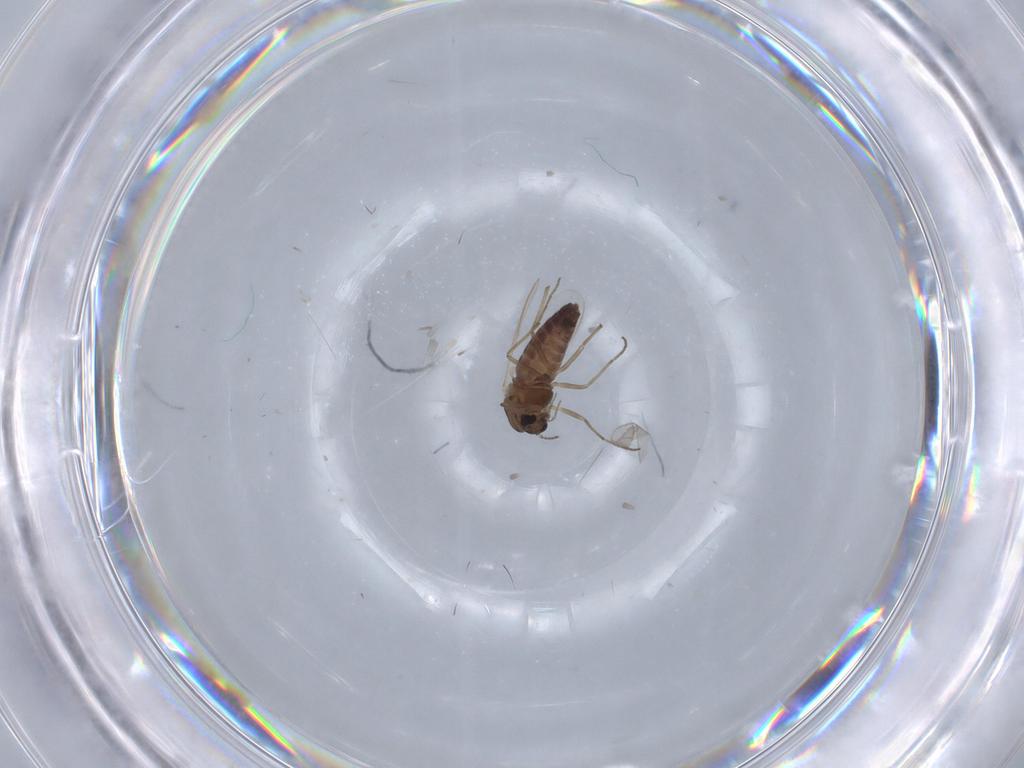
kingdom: Animalia
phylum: Arthropoda
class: Insecta
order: Diptera
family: Chironomidae
